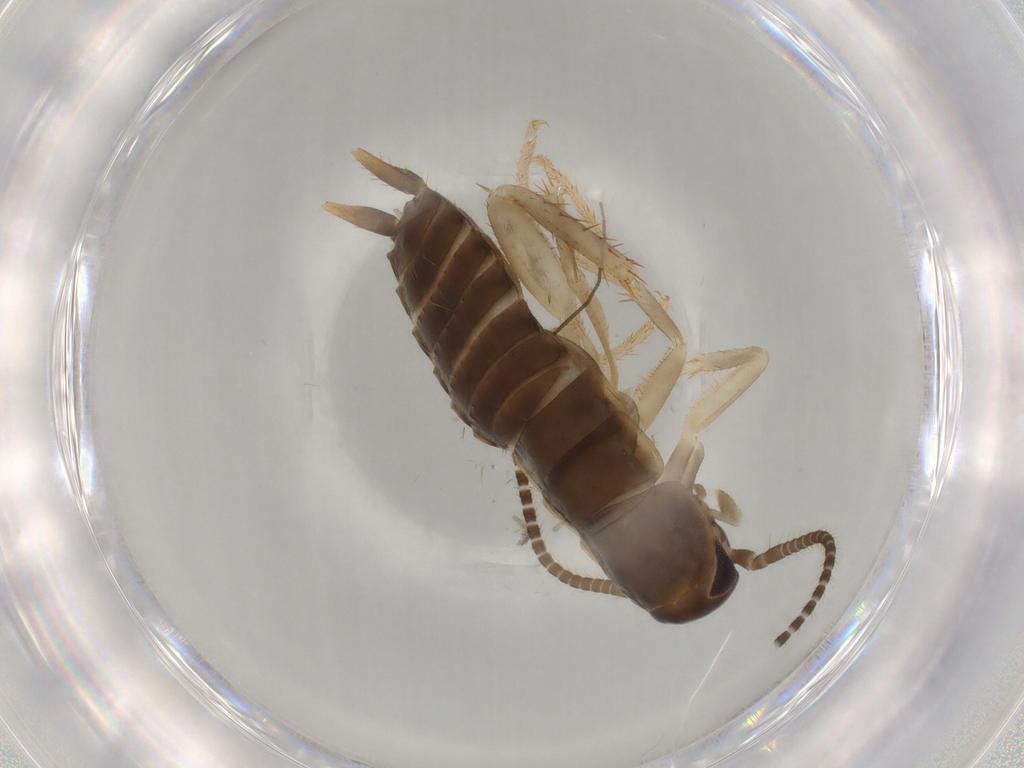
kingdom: Animalia
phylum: Arthropoda
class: Insecta
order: Blattodea
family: Blaberidae
